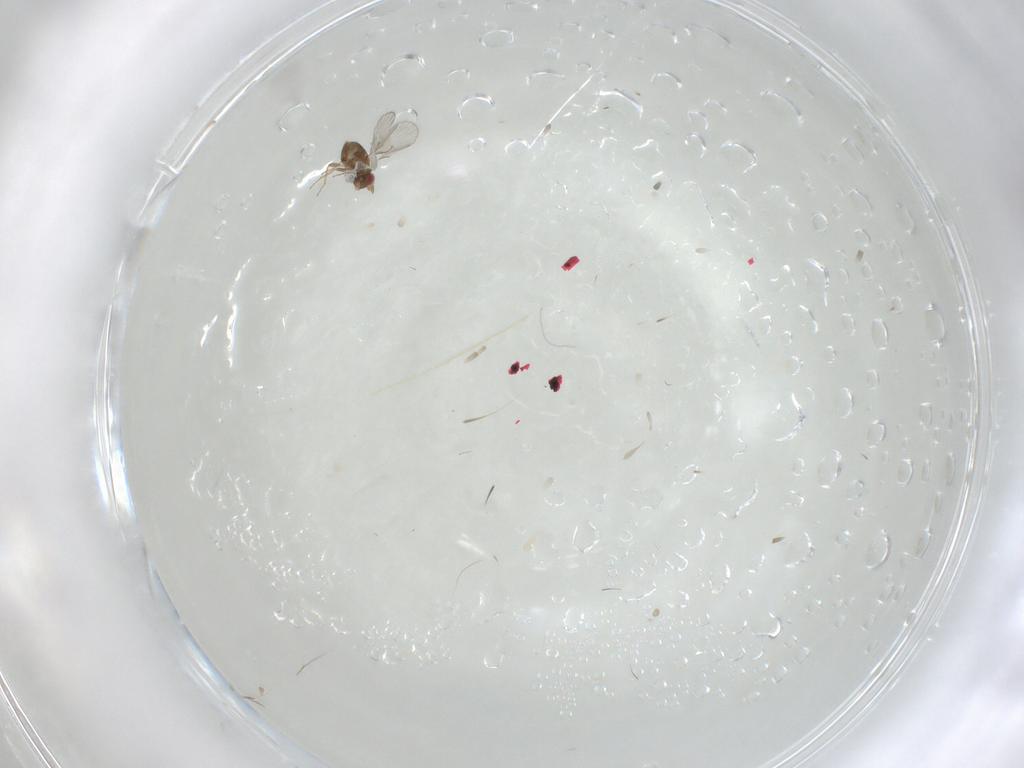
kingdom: Animalia
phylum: Arthropoda
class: Insecta
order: Hymenoptera
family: Trichogrammatidae
